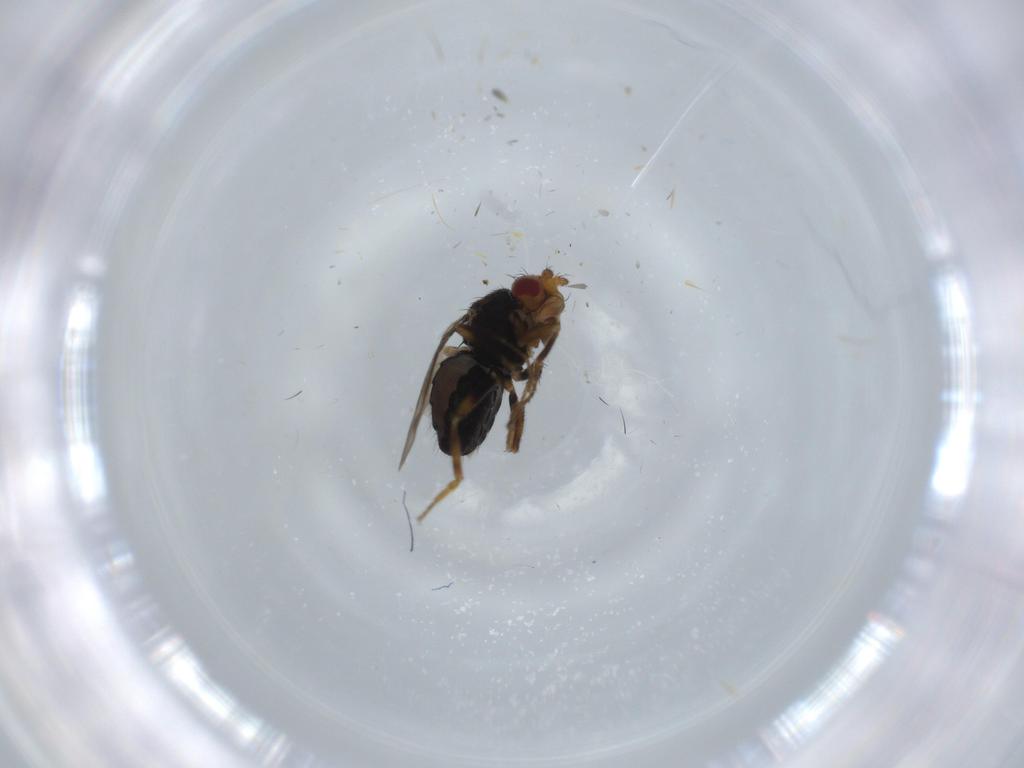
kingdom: Animalia
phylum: Arthropoda
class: Insecta
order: Diptera
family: Sphaeroceridae
